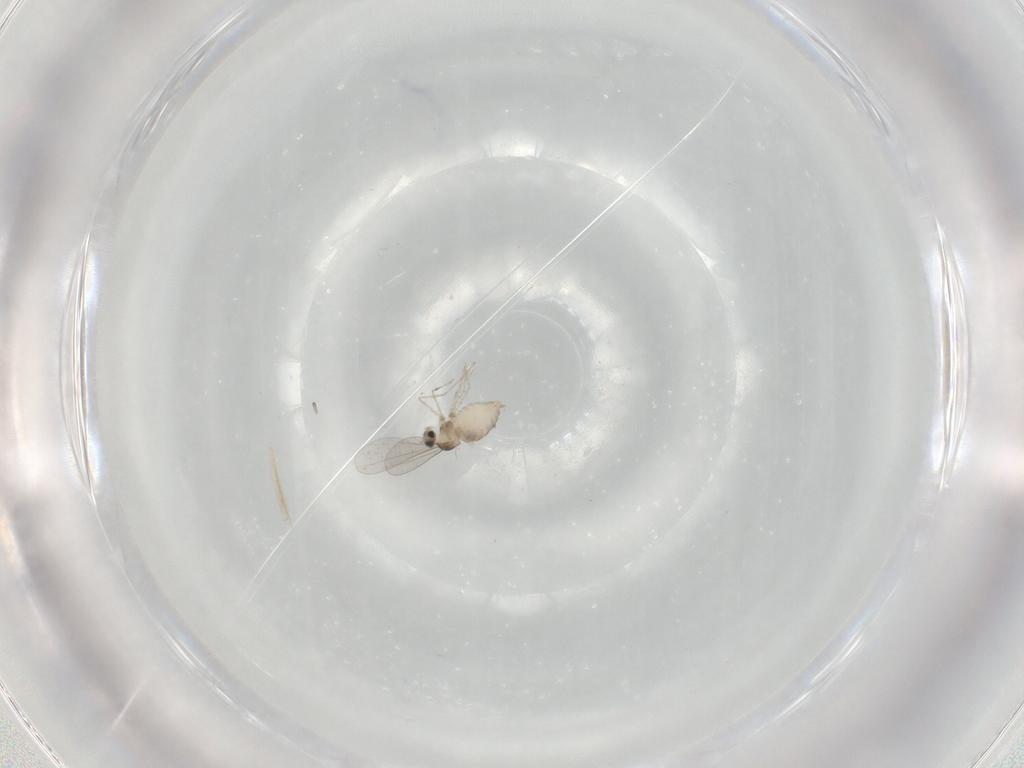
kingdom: Animalia
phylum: Arthropoda
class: Insecta
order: Diptera
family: Cecidomyiidae
